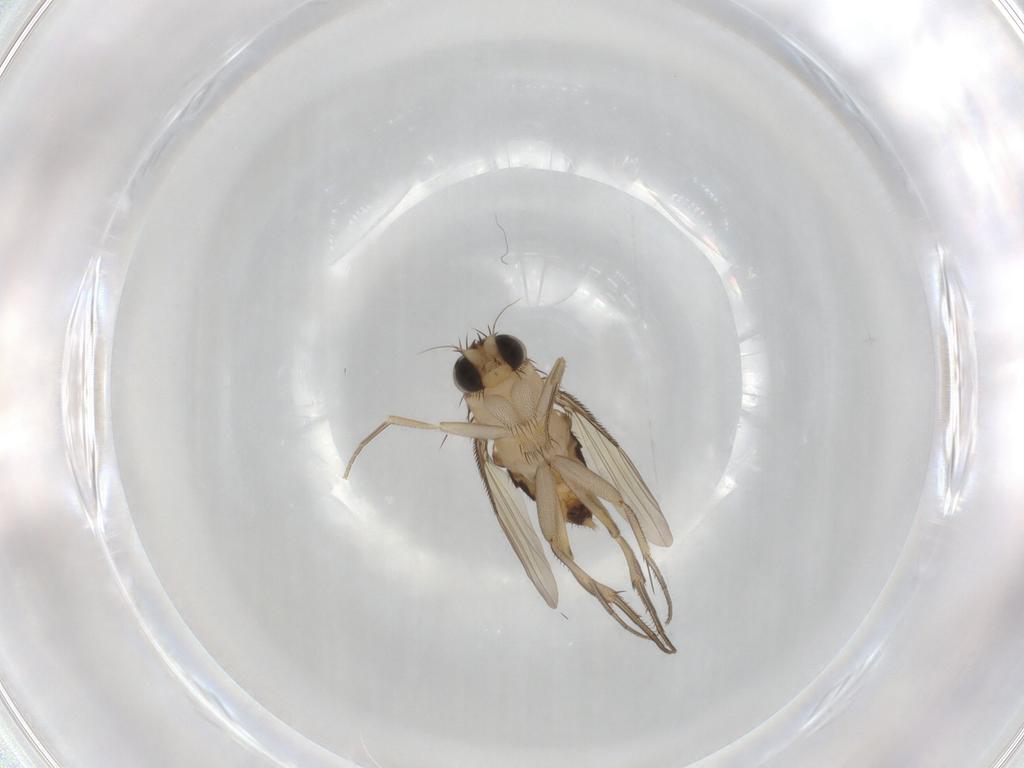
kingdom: Animalia
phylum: Arthropoda
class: Insecta
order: Diptera
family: Phoridae
